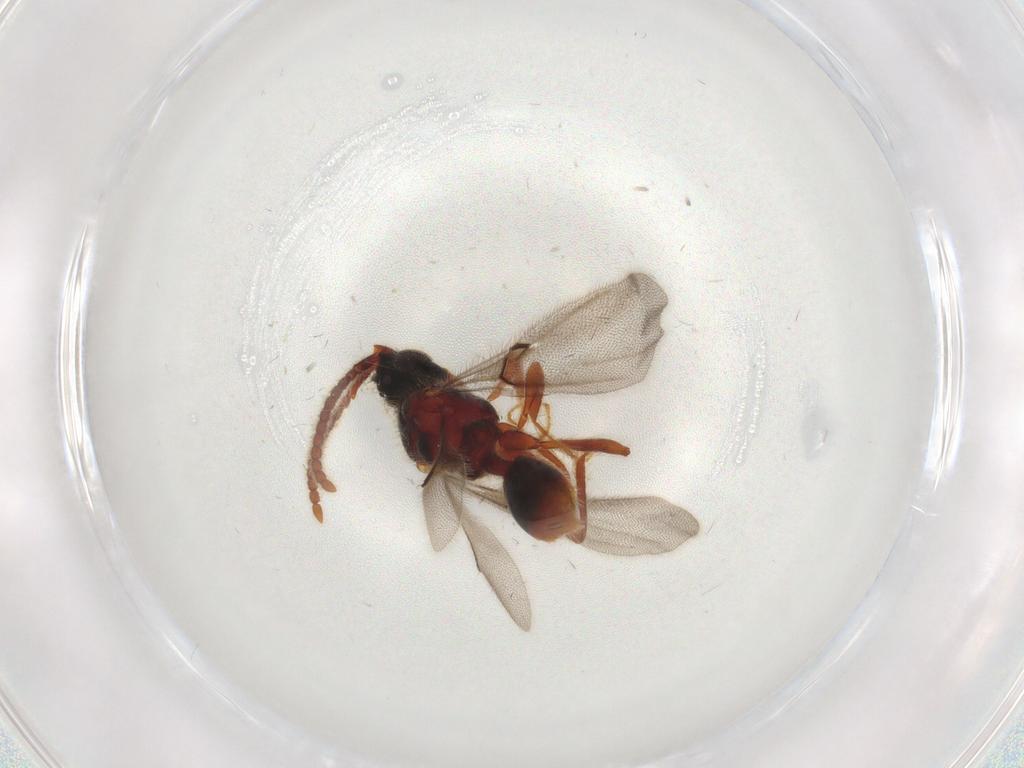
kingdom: Animalia
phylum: Arthropoda
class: Insecta
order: Hymenoptera
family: Diapriidae
